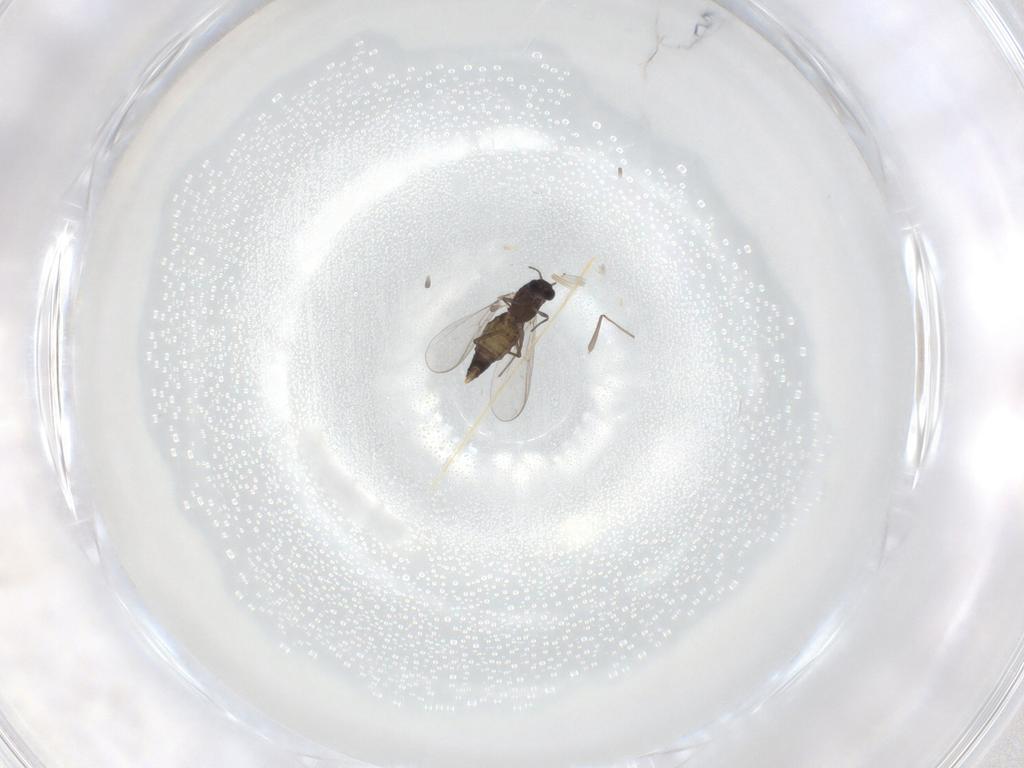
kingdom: Animalia
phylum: Arthropoda
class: Insecta
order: Diptera
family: Chironomidae
